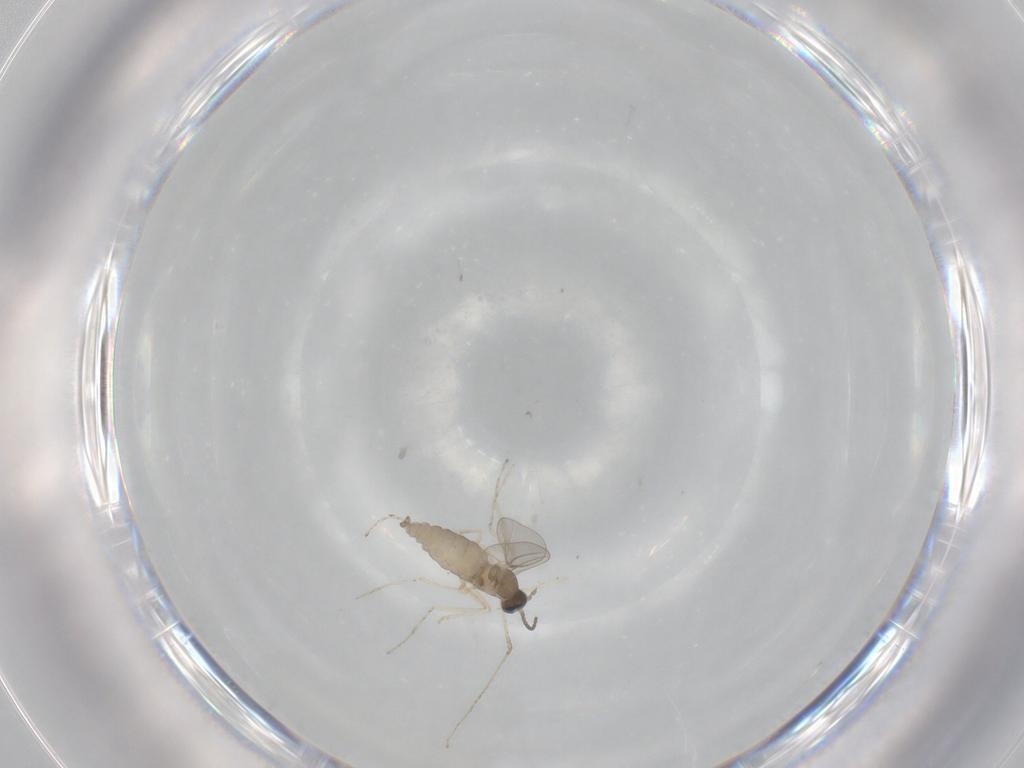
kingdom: Animalia
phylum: Arthropoda
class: Insecta
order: Diptera
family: Cecidomyiidae
